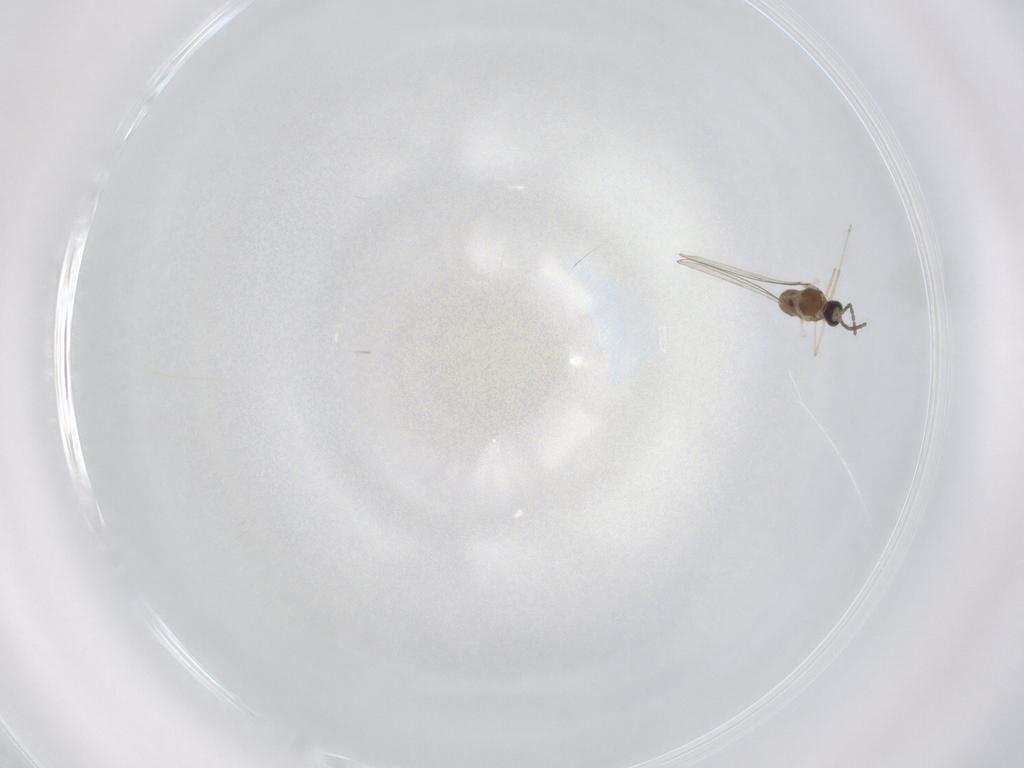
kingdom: Animalia
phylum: Arthropoda
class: Insecta
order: Diptera
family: Cecidomyiidae
